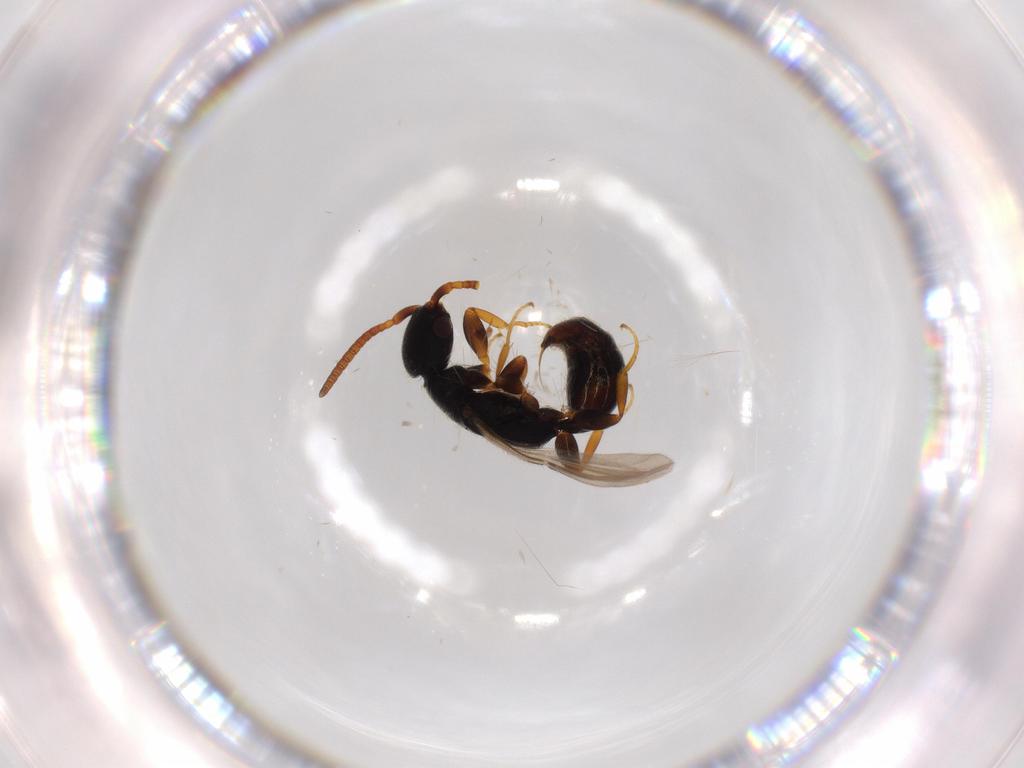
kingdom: Animalia
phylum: Arthropoda
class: Insecta
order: Hymenoptera
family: Bethylidae
